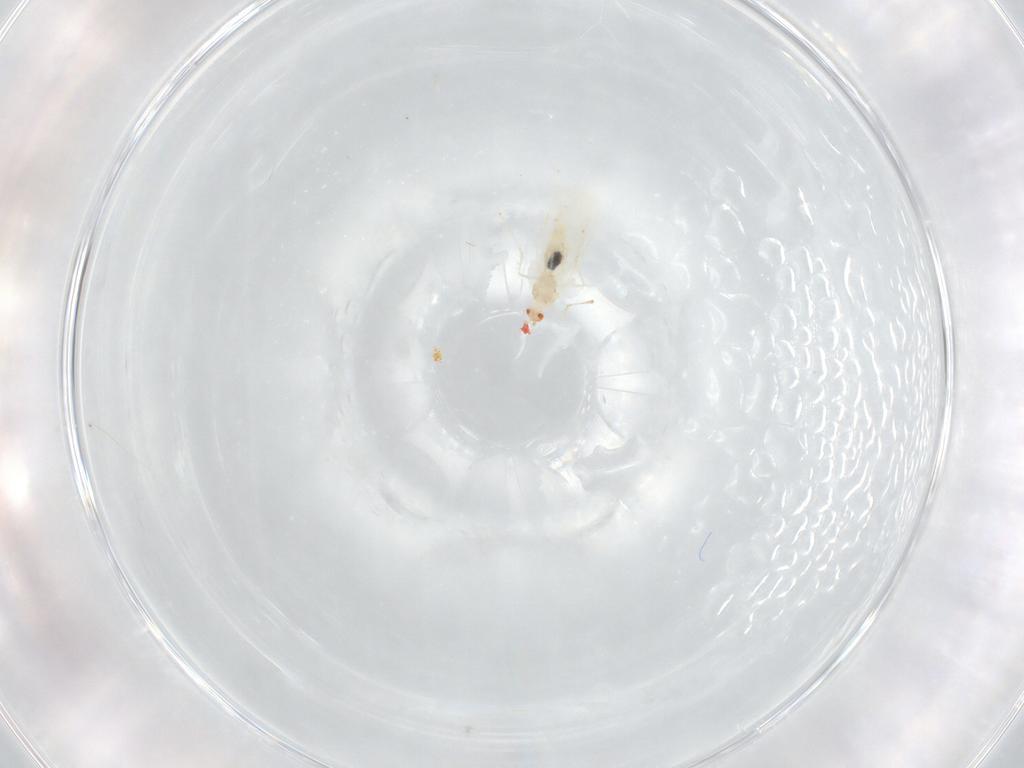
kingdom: Animalia
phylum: Arthropoda
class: Insecta
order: Diptera
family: Cecidomyiidae
